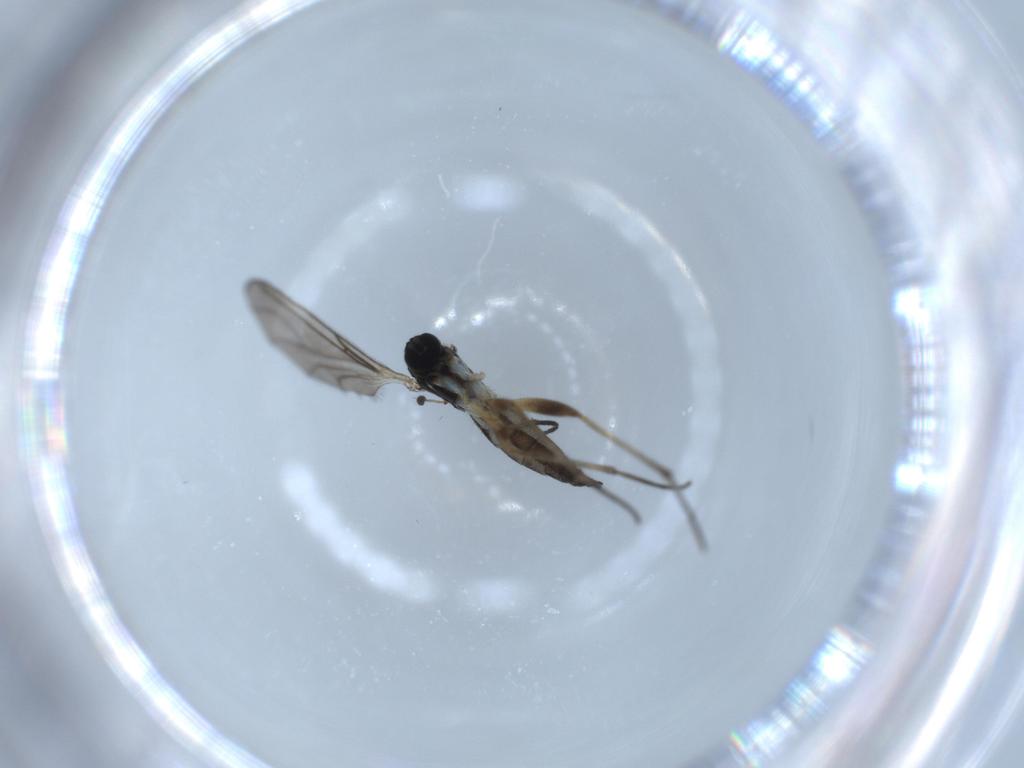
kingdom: Animalia
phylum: Arthropoda
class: Insecta
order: Diptera
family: Sciaridae
